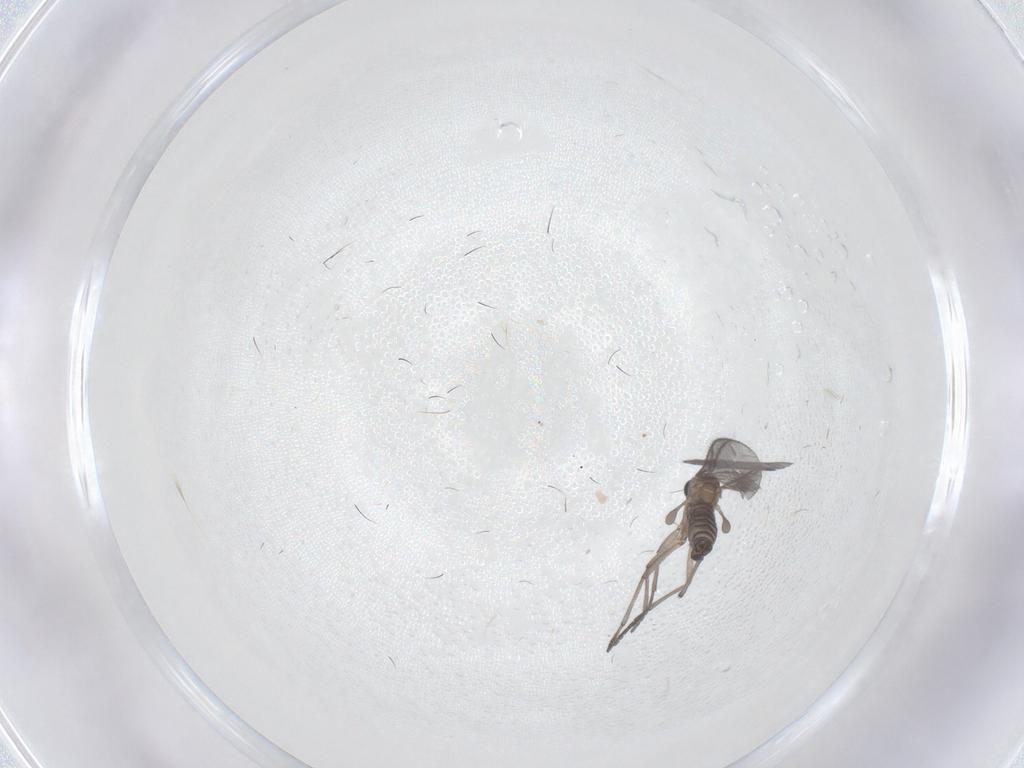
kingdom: Animalia
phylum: Arthropoda
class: Insecta
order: Diptera
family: Sciaridae
